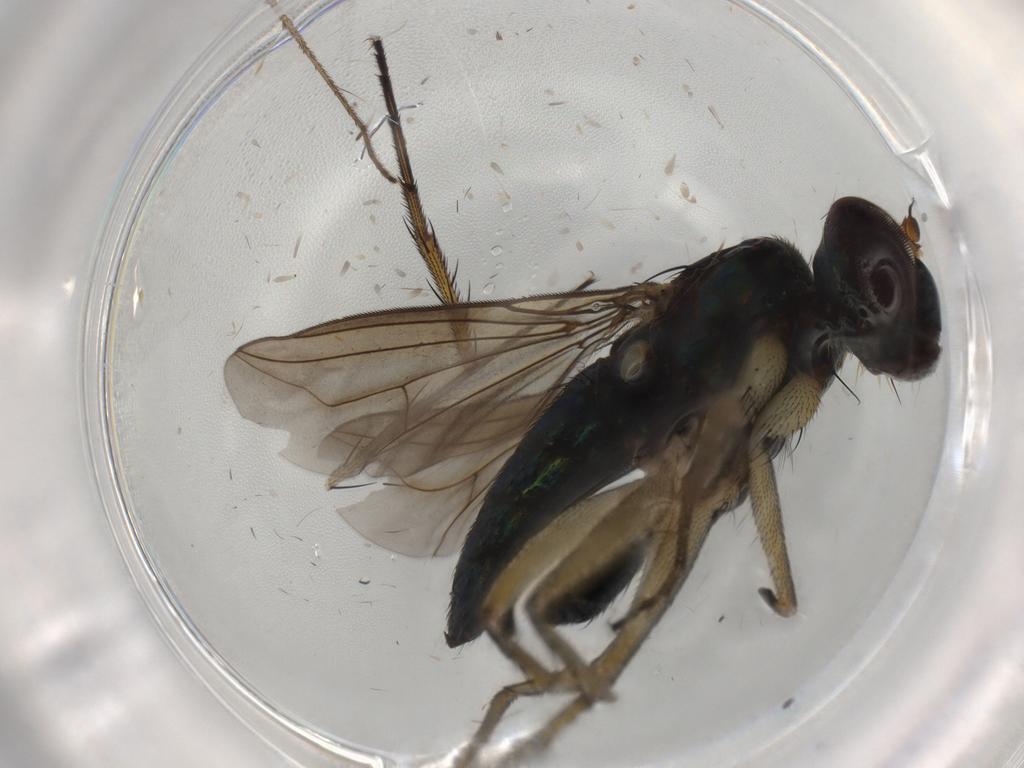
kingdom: Animalia
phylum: Arthropoda
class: Insecta
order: Diptera
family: Limoniidae
